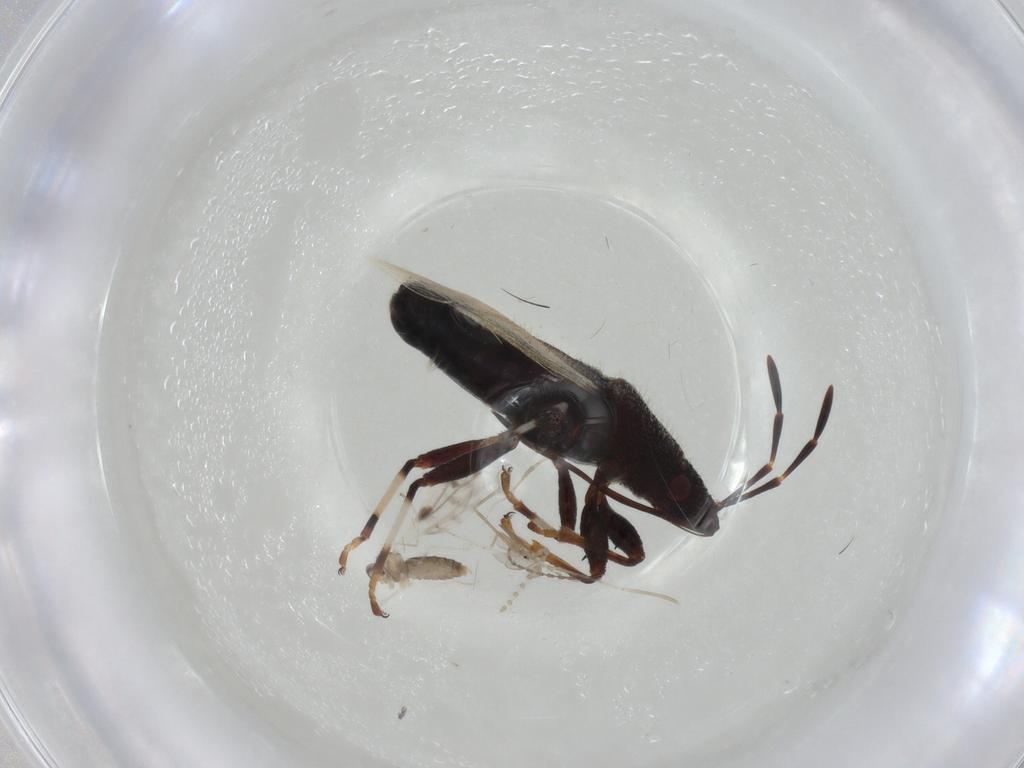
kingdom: Animalia
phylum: Arthropoda
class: Insecta
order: Hemiptera
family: Oxycarenidae
